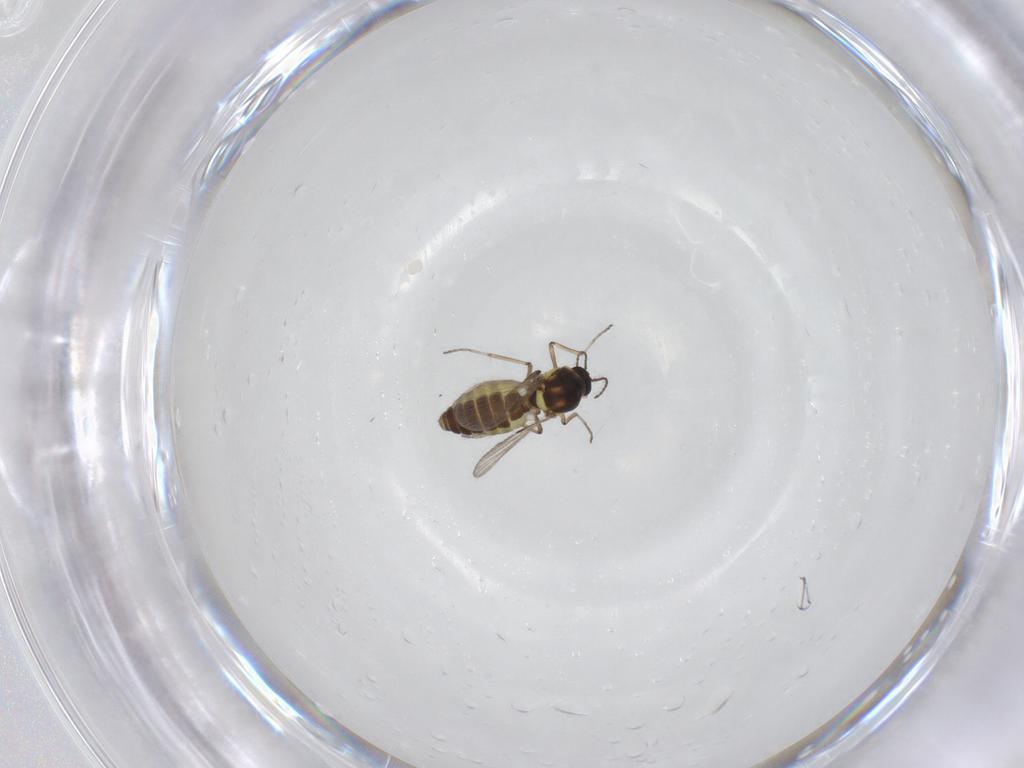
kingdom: Animalia
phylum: Arthropoda
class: Insecta
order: Diptera
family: Ceratopogonidae
